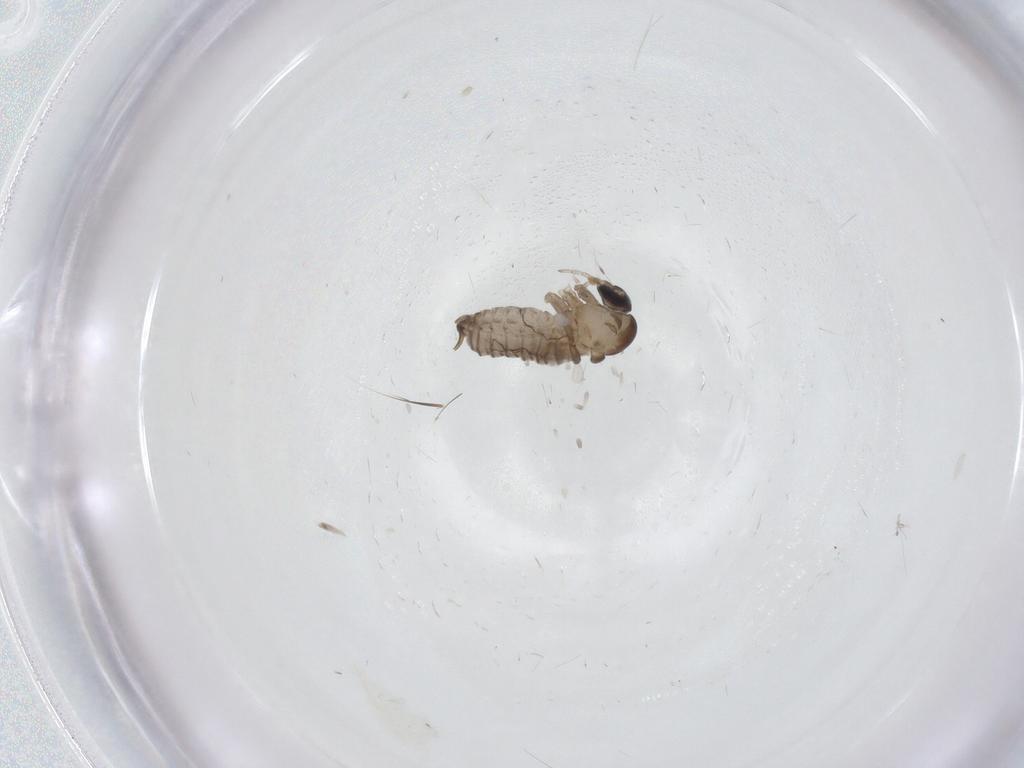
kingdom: Animalia
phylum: Arthropoda
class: Insecta
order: Diptera
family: Psychodidae
